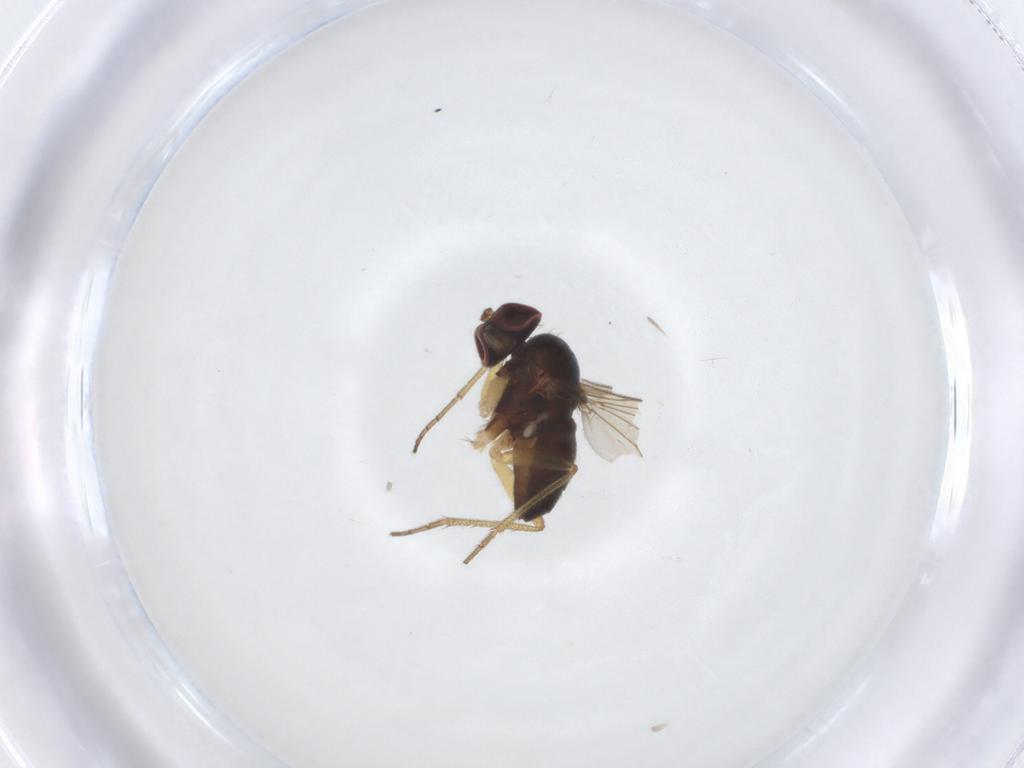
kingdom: Animalia
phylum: Arthropoda
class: Insecta
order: Diptera
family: Dolichopodidae
